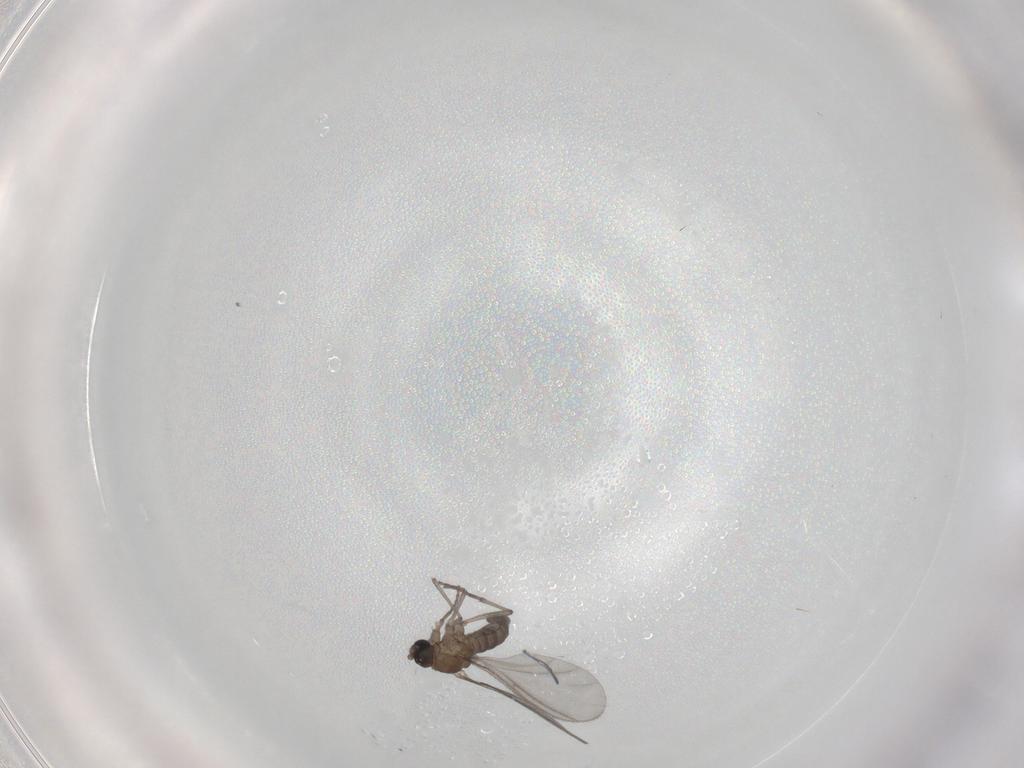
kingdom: Animalia
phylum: Arthropoda
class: Insecta
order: Diptera
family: Sciaridae
